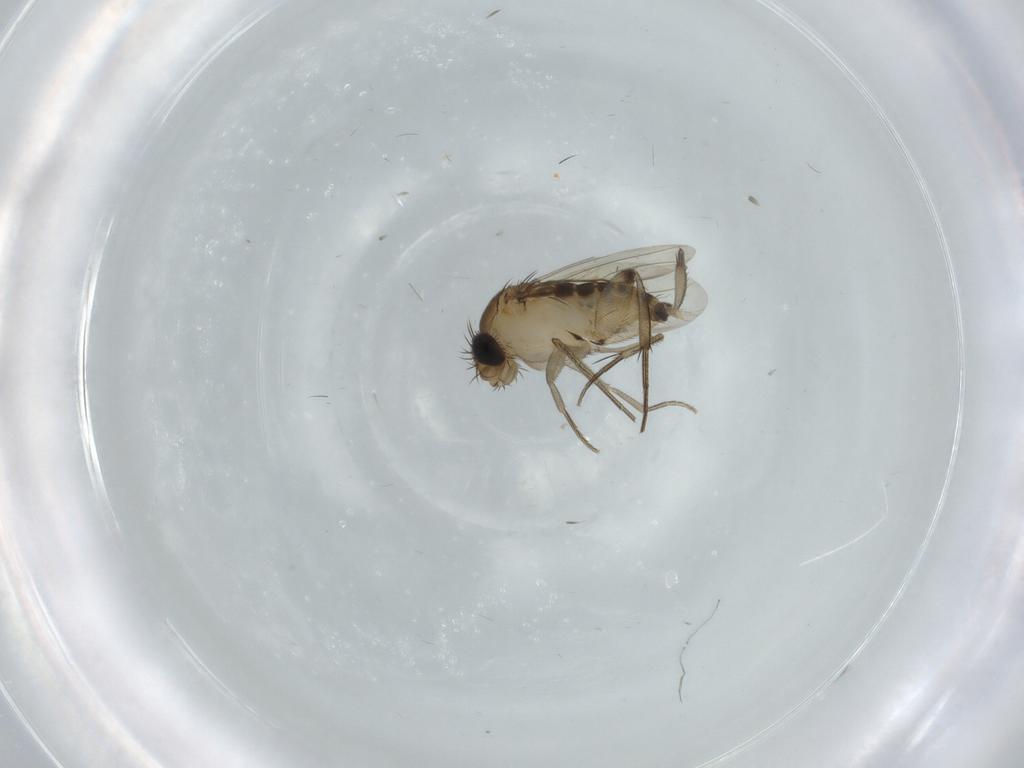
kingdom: Animalia
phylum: Arthropoda
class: Insecta
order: Diptera
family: Phoridae
